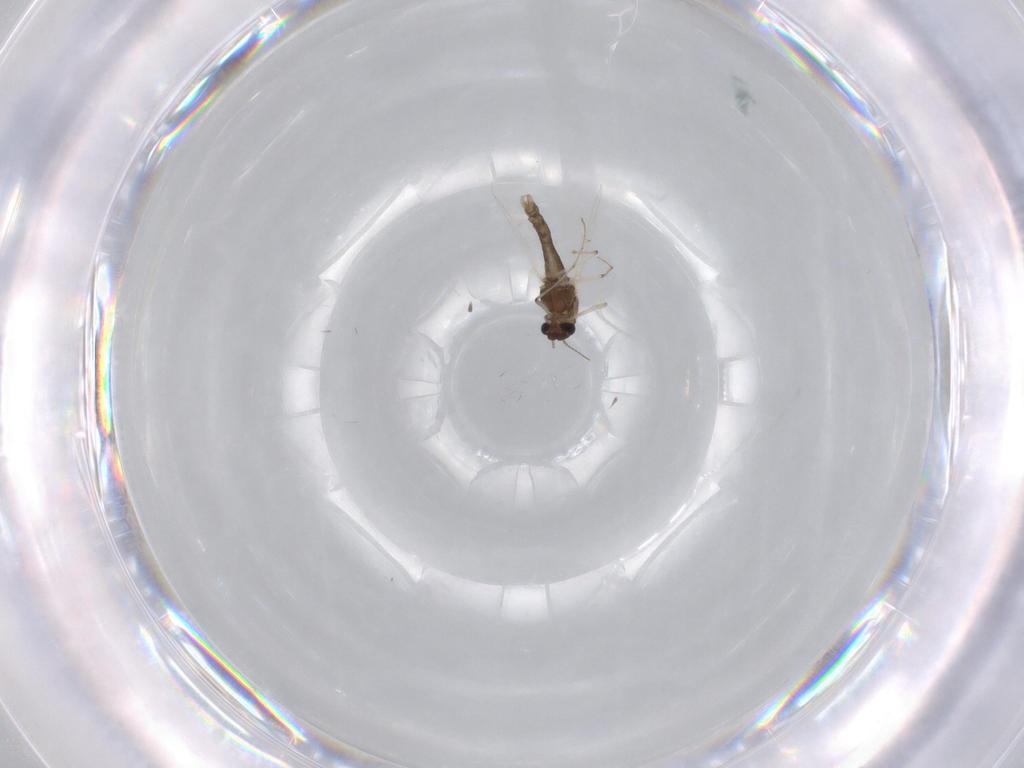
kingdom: Animalia
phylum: Arthropoda
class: Insecta
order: Diptera
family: Chironomidae
